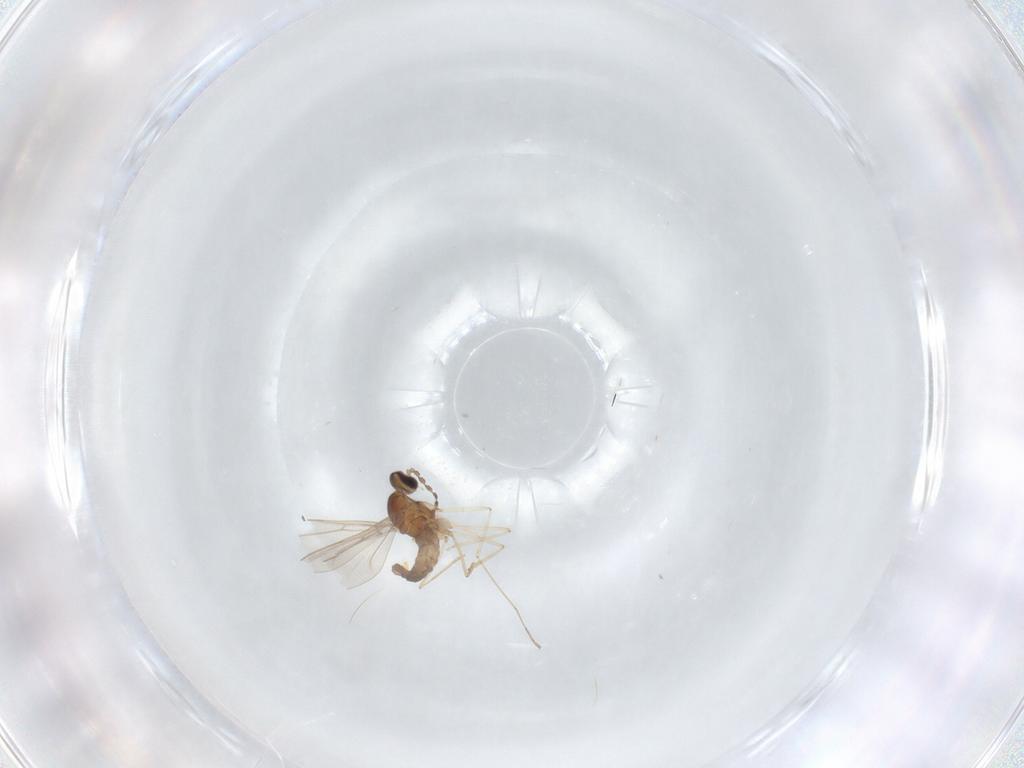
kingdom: Animalia
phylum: Arthropoda
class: Insecta
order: Diptera
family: Cecidomyiidae
